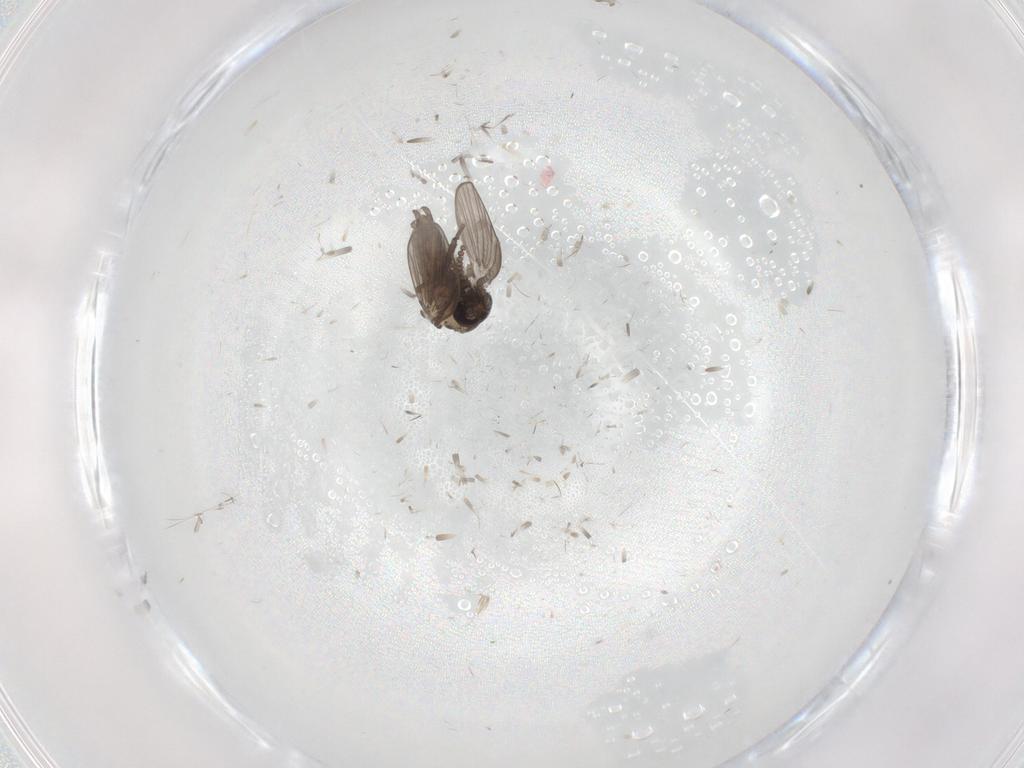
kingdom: Animalia
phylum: Arthropoda
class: Insecta
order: Diptera
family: Psychodidae
